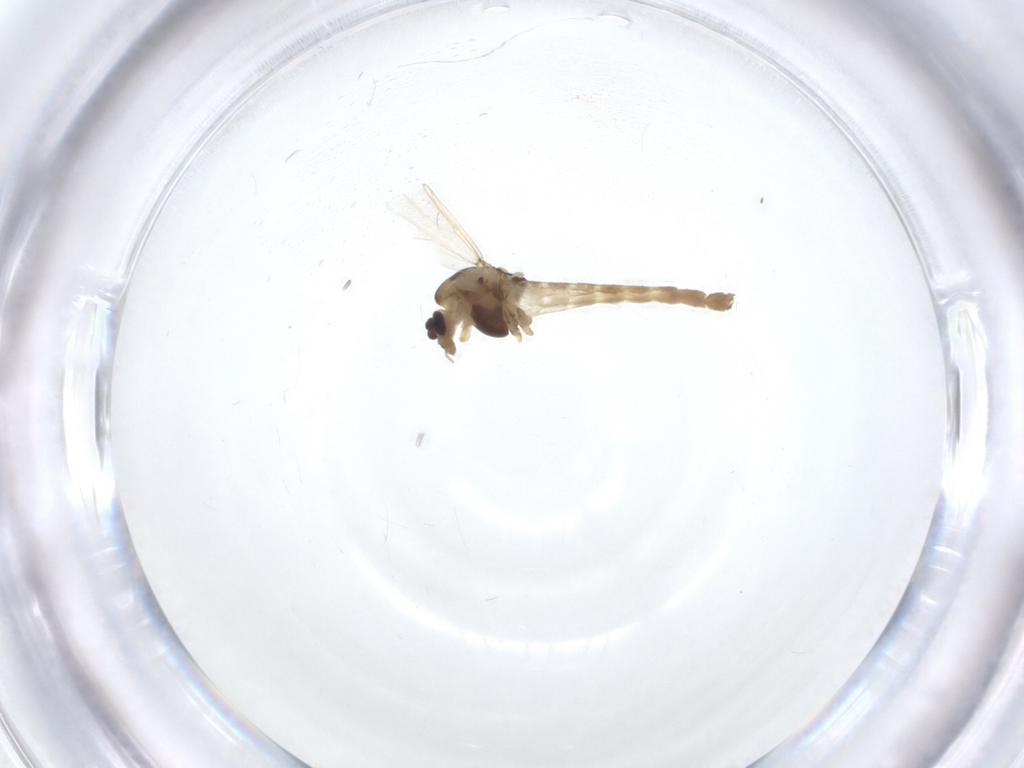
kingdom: Animalia
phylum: Arthropoda
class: Insecta
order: Diptera
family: Chironomidae
